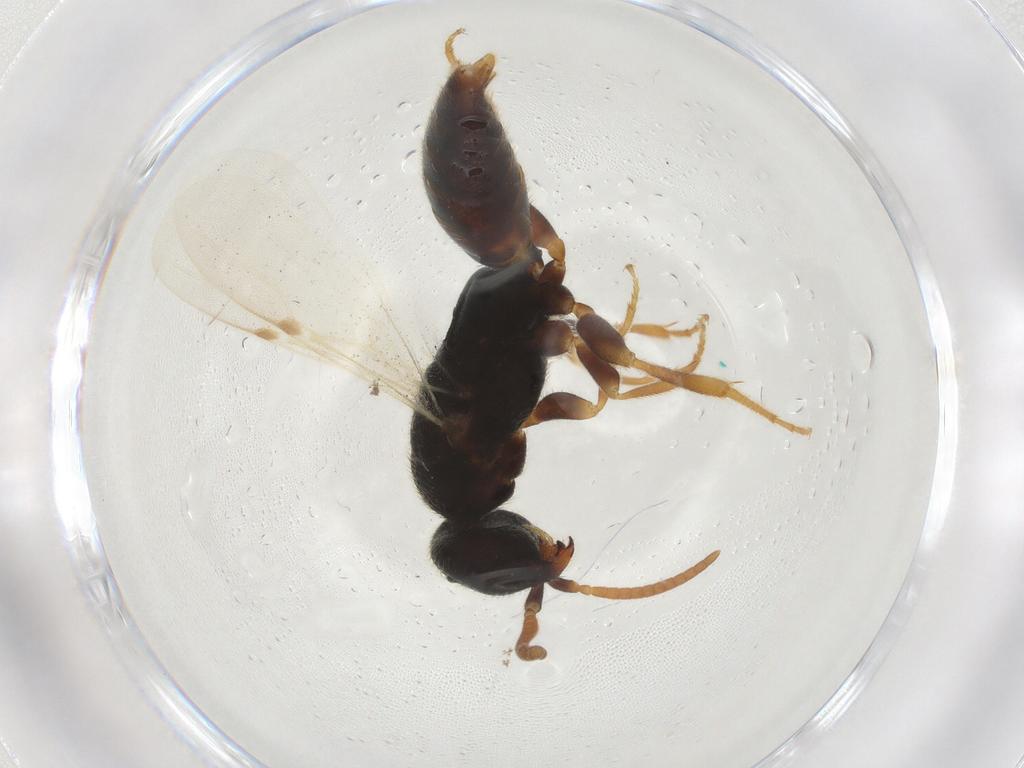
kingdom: Animalia
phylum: Arthropoda
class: Insecta
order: Hymenoptera
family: Bethylidae
